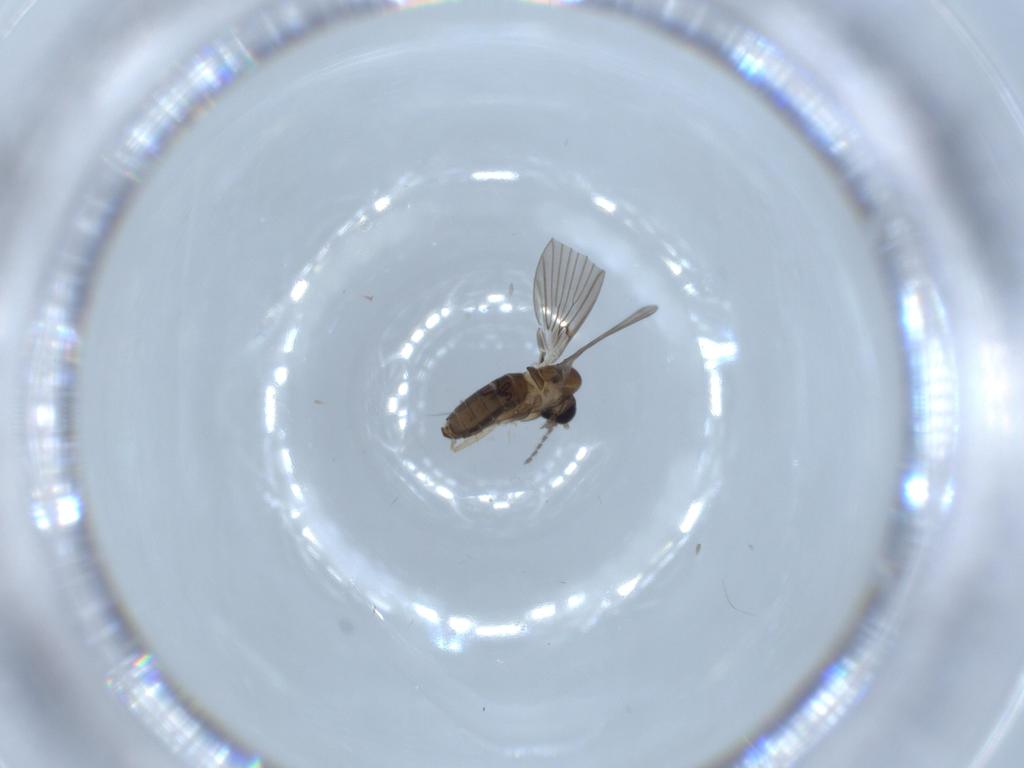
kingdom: Animalia
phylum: Arthropoda
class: Insecta
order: Diptera
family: Psychodidae
